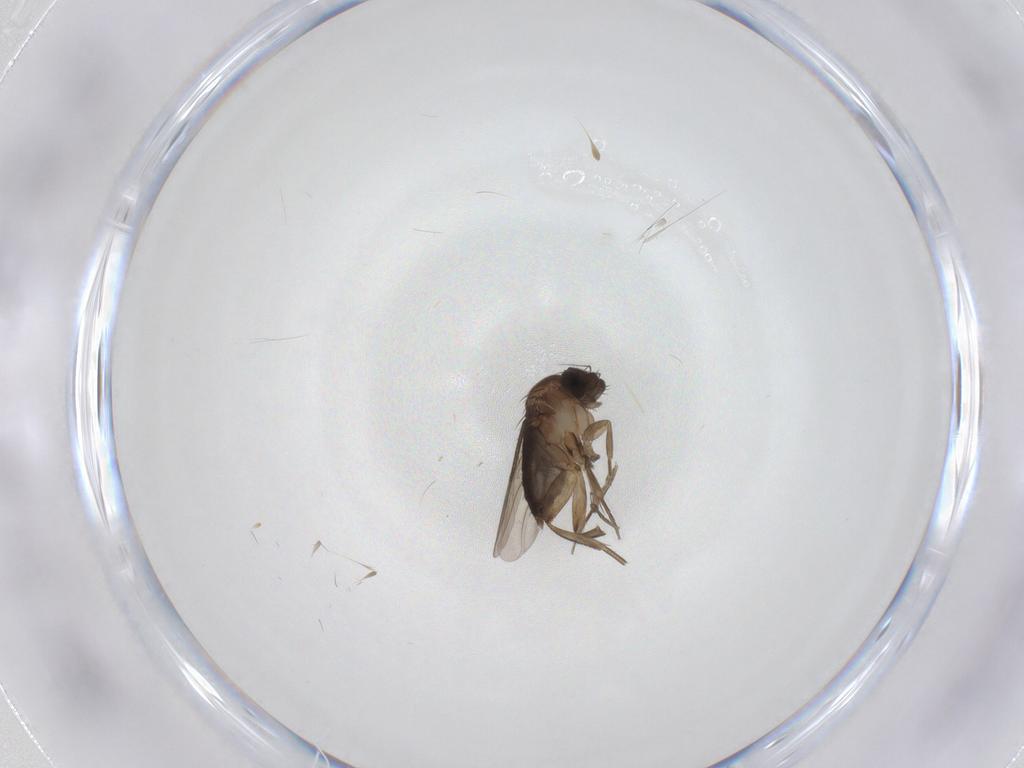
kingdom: Animalia
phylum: Arthropoda
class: Insecta
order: Diptera
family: Phoridae
